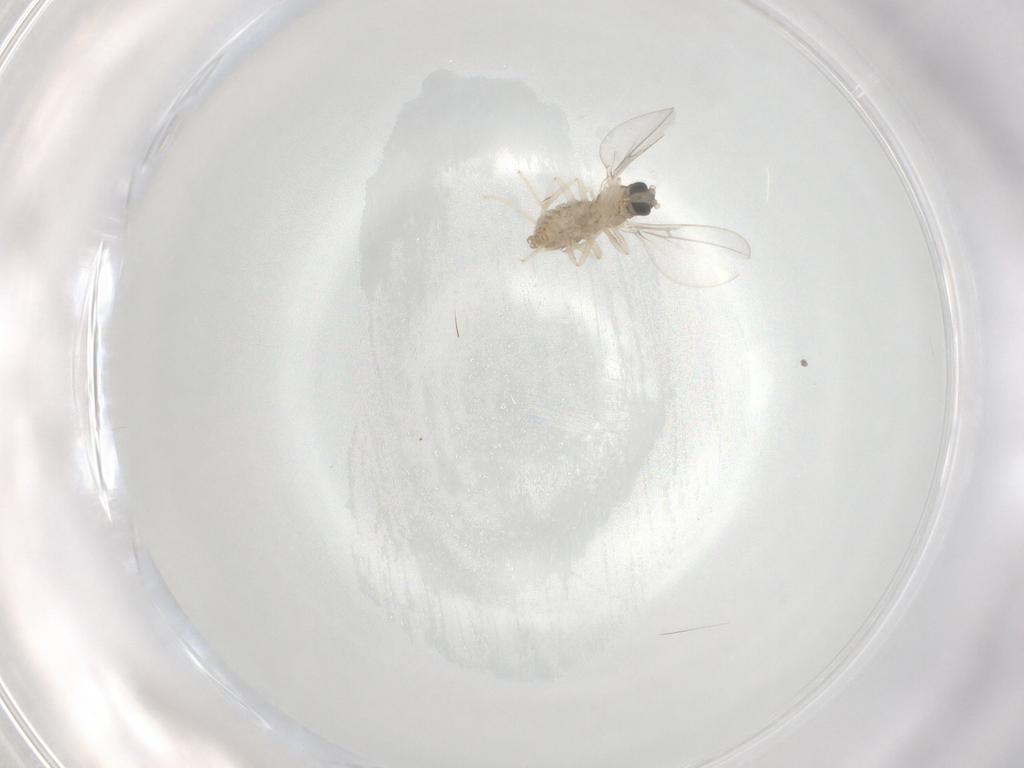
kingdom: Animalia
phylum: Arthropoda
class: Insecta
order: Diptera
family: Cecidomyiidae
